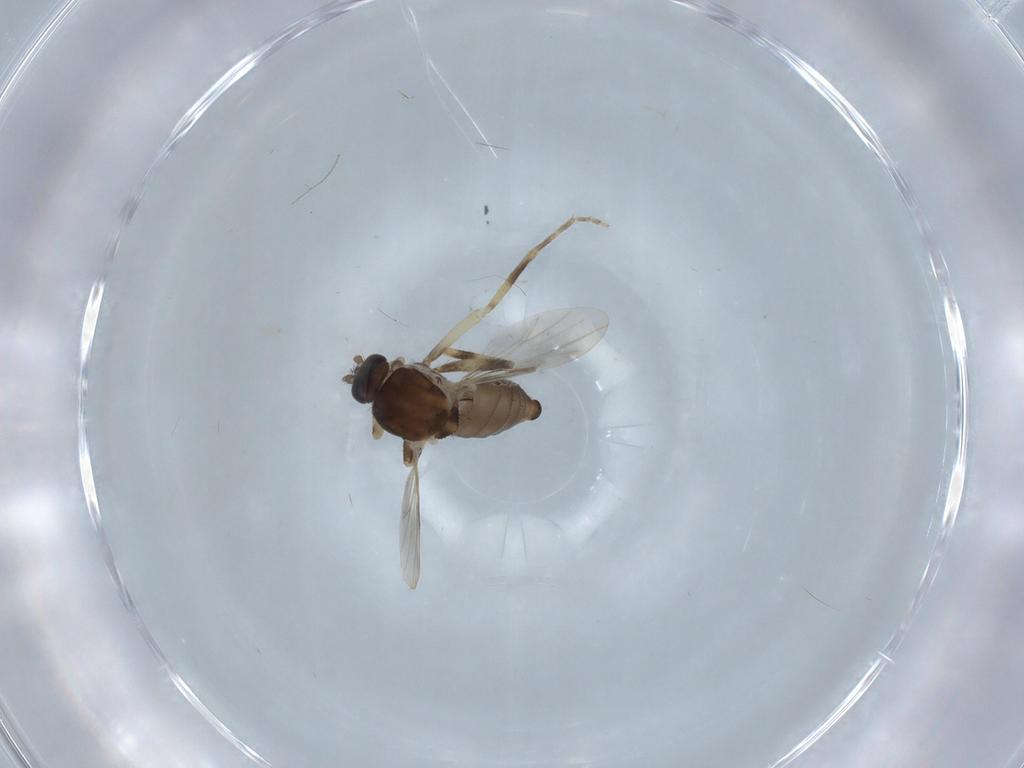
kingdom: Animalia
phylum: Arthropoda
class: Insecta
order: Diptera
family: Ceratopogonidae
